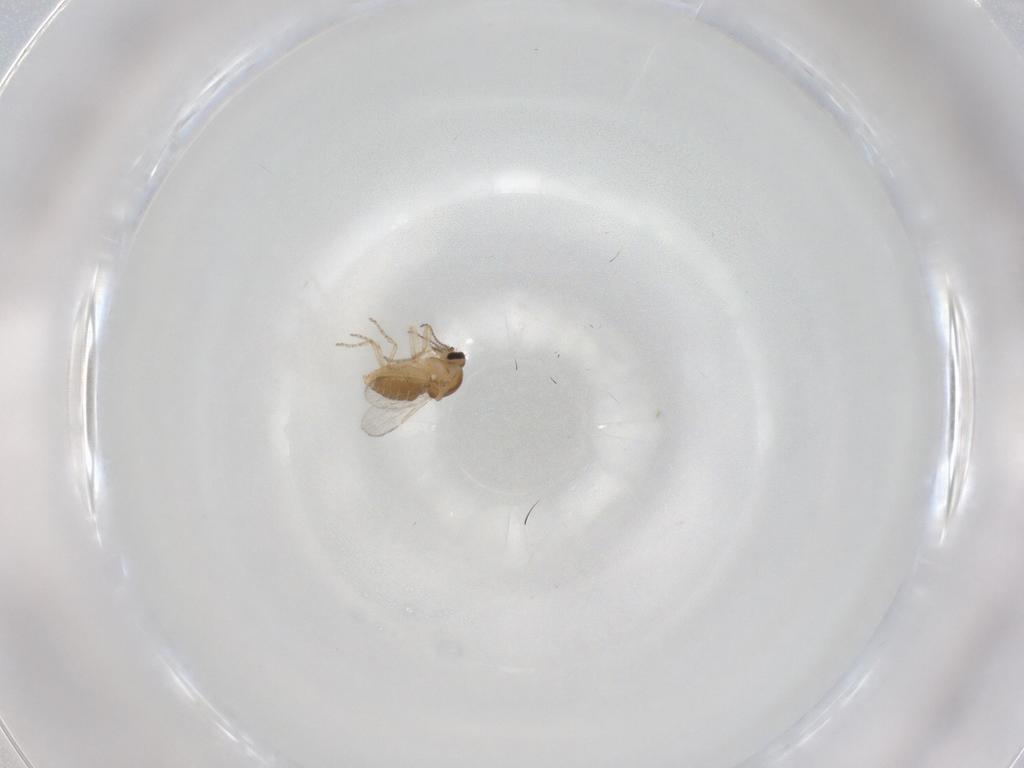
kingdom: Animalia
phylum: Arthropoda
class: Insecta
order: Diptera
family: Ceratopogonidae
